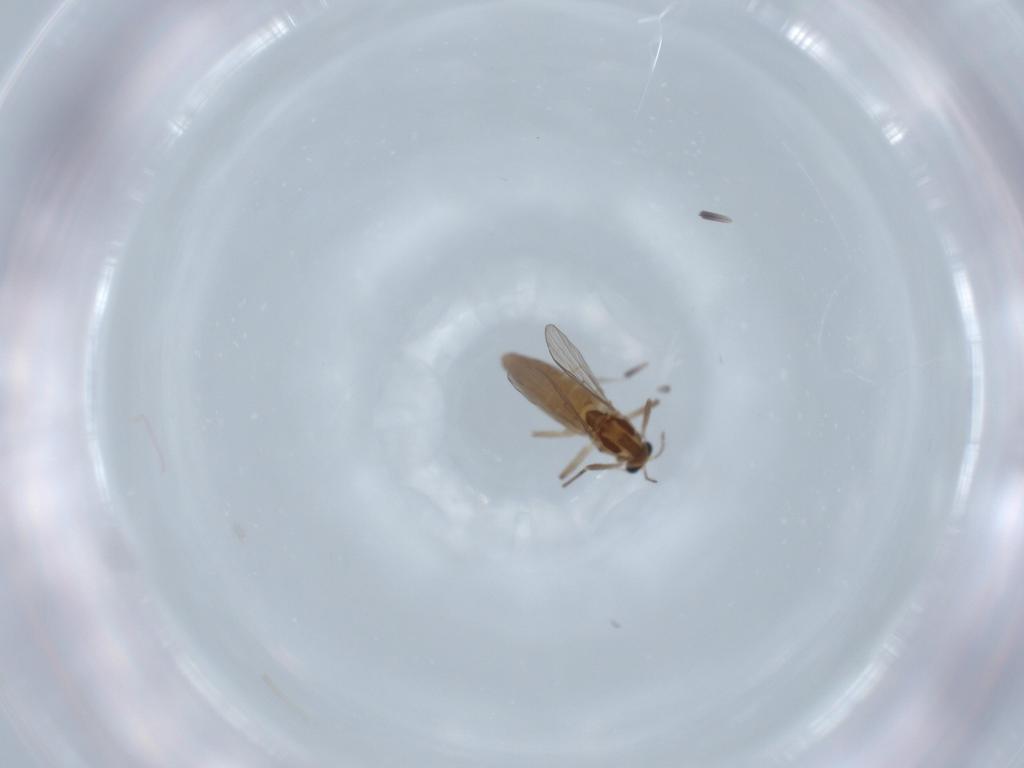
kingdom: Animalia
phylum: Arthropoda
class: Insecta
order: Diptera
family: Chironomidae
